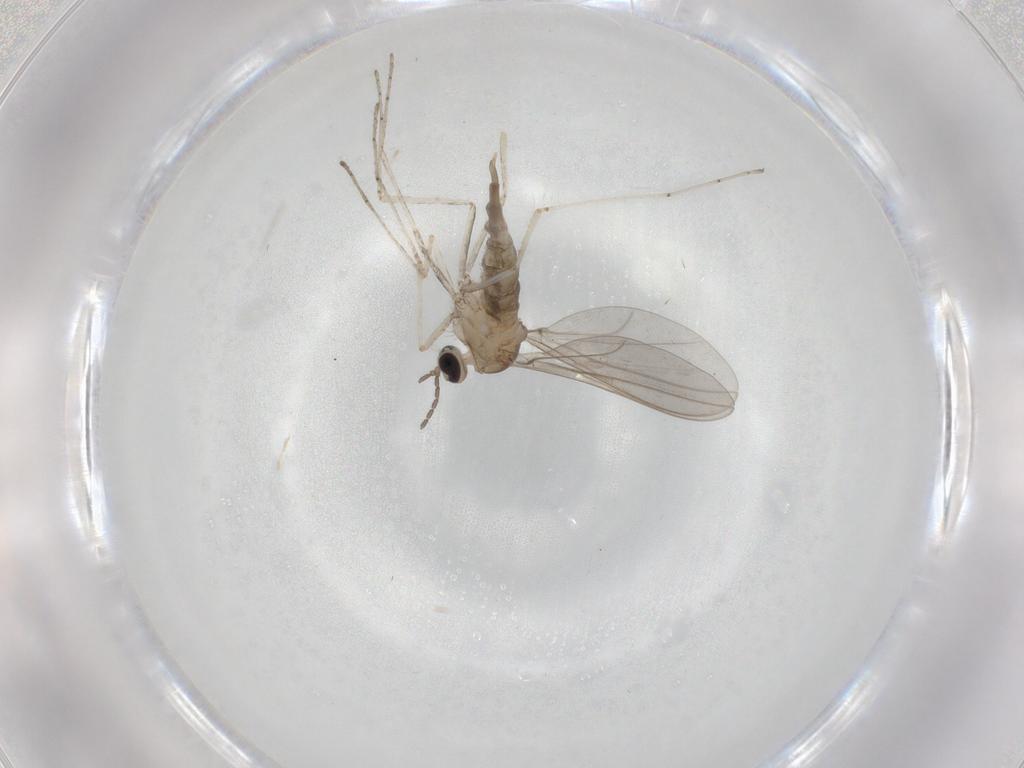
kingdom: Animalia
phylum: Arthropoda
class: Insecta
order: Diptera
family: Cecidomyiidae
